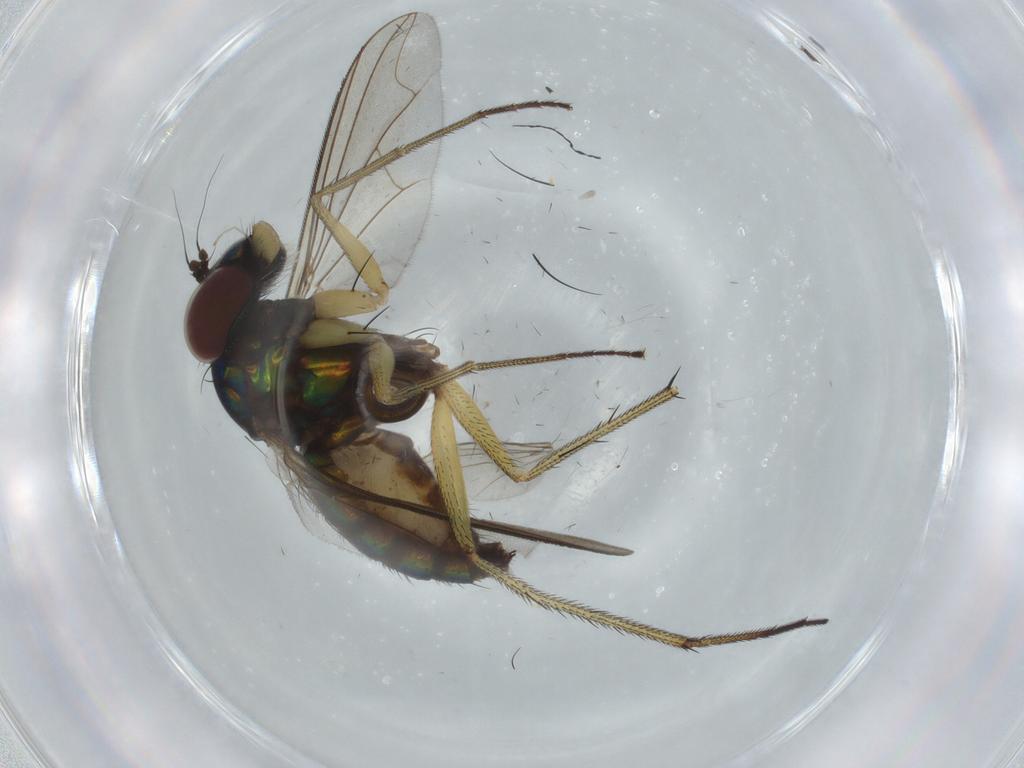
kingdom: Animalia
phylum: Arthropoda
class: Insecta
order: Diptera
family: Dolichopodidae
